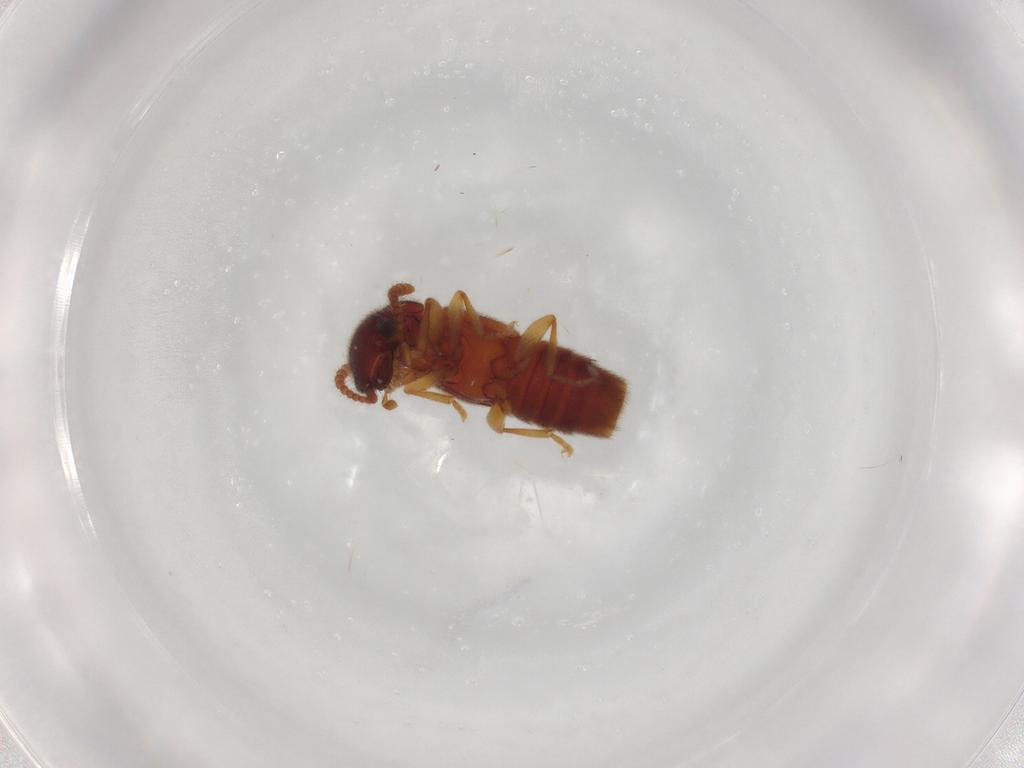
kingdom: Animalia
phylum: Arthropoda
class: Insecta
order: Coleoptera
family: Staphylinidae
